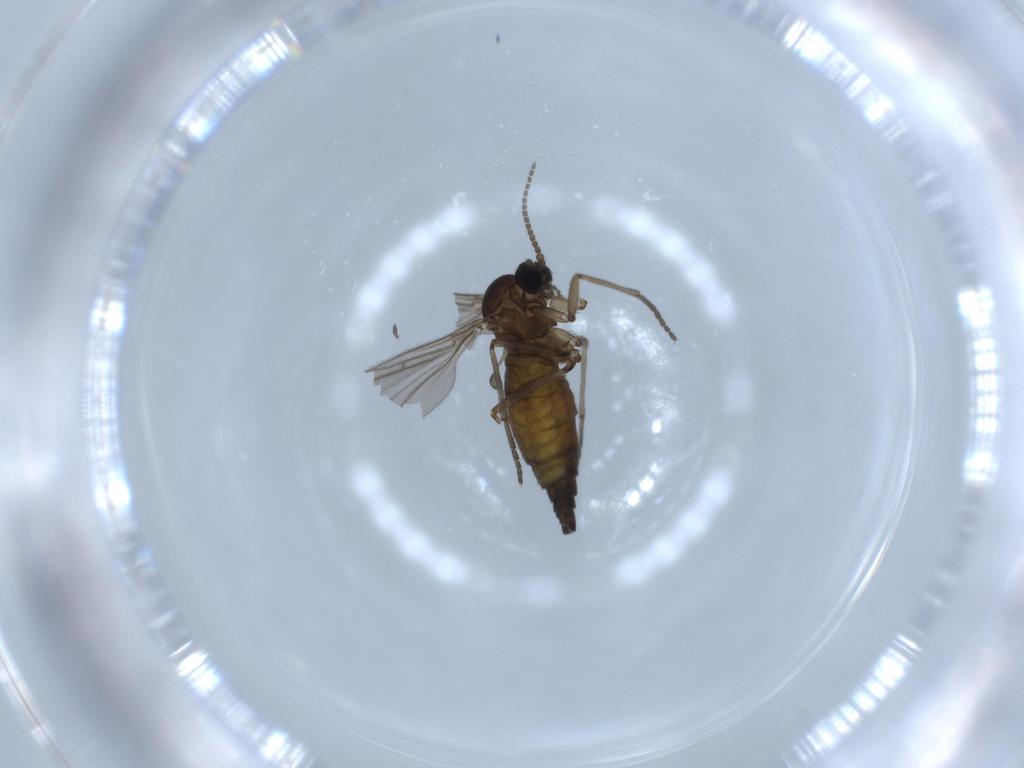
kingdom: Animalia
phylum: Arthropoda
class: Insecta
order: Diptera
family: Sciaridae
